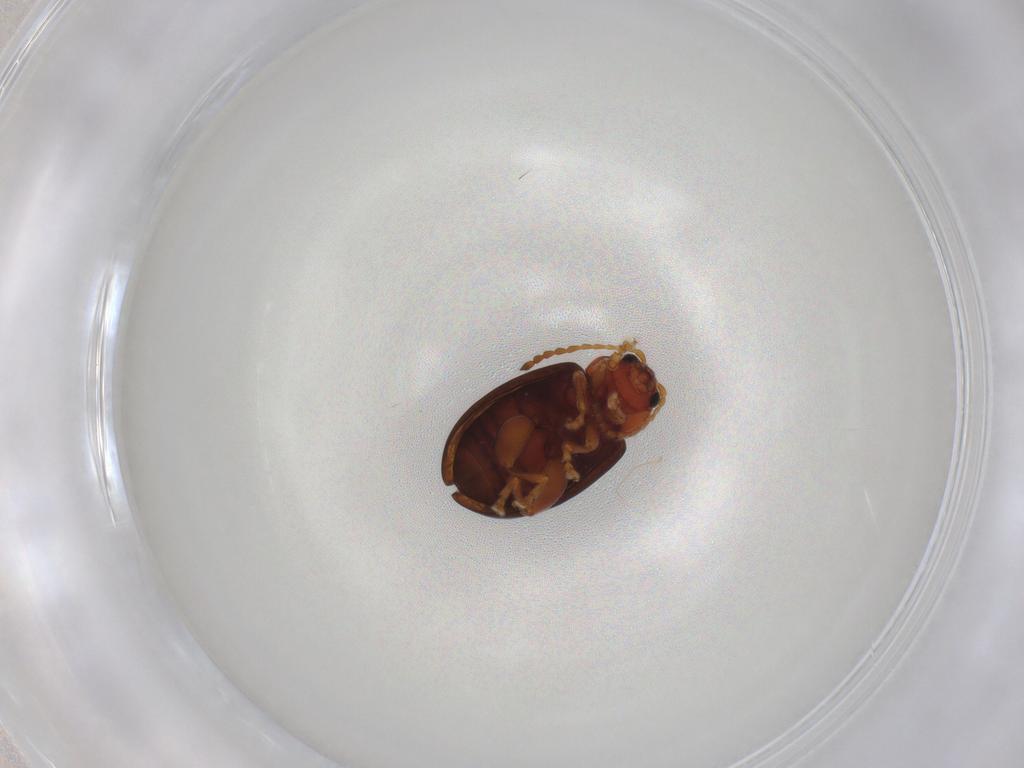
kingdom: Animalia
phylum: Arthropoda
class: Insecta
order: Coleoptera
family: Chrysomelidae
